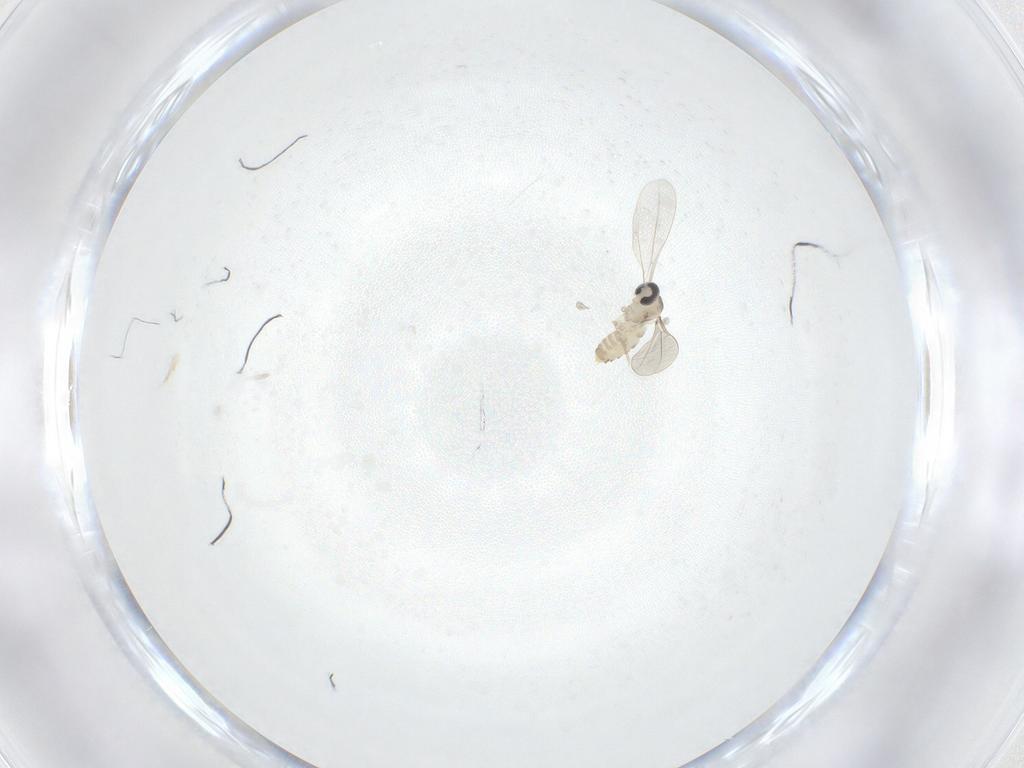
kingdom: Animalia
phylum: Arthropoda
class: Insecta
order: Diptera
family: Cecidomyiidae
